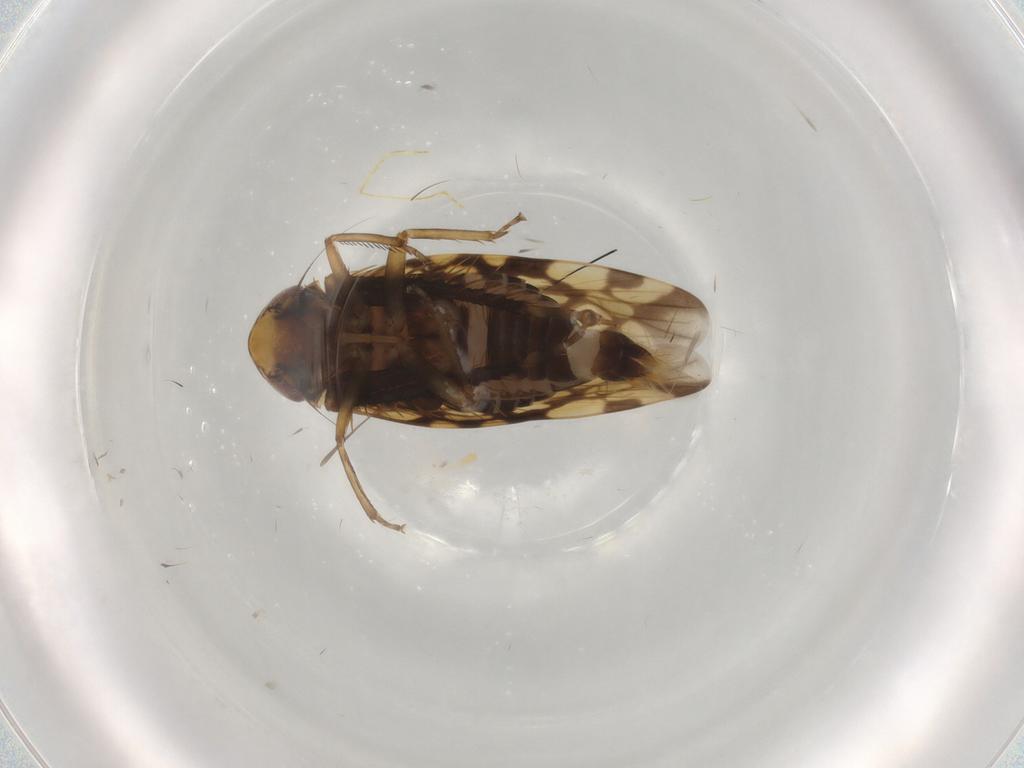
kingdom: Animalia
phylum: Arthropoda
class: Insecta
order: Hemiptera
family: Cicadellidae
